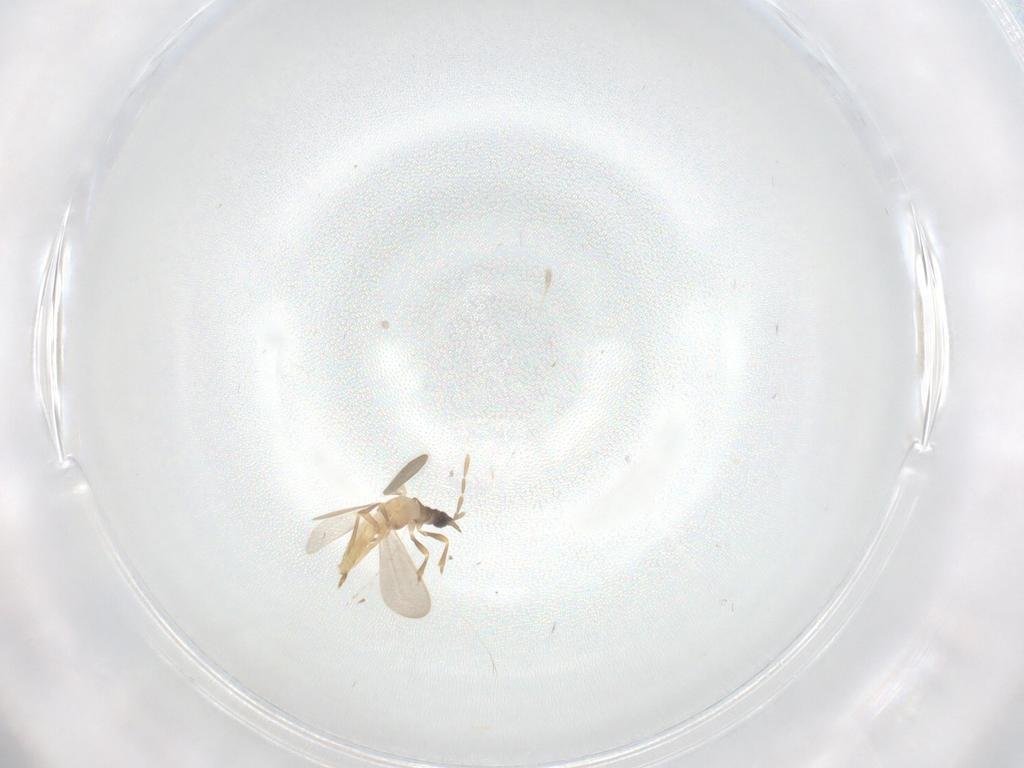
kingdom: Animalia
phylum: Arthropoda
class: Insecta
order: Hemiptera
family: Enicocephalidae
